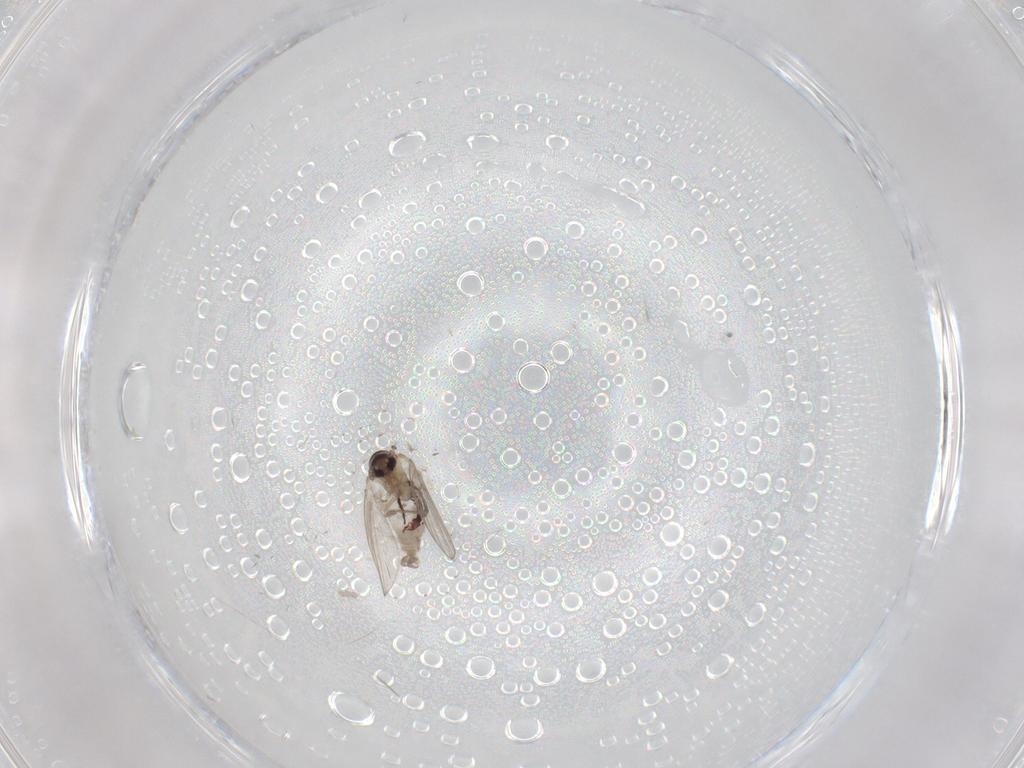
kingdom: Animalia
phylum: Arthropoda
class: Insecta
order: Diptera
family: Psychodidae
